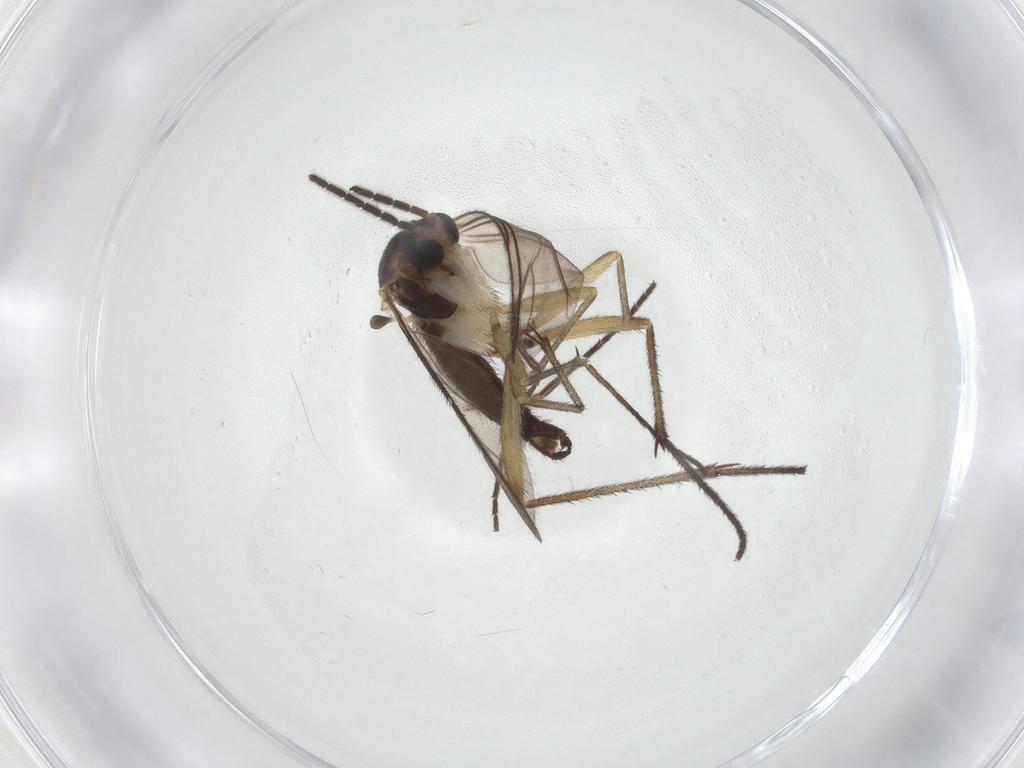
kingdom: Animalia
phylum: Arthropoda
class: Insecta
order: Diptera
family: Sciaridae
